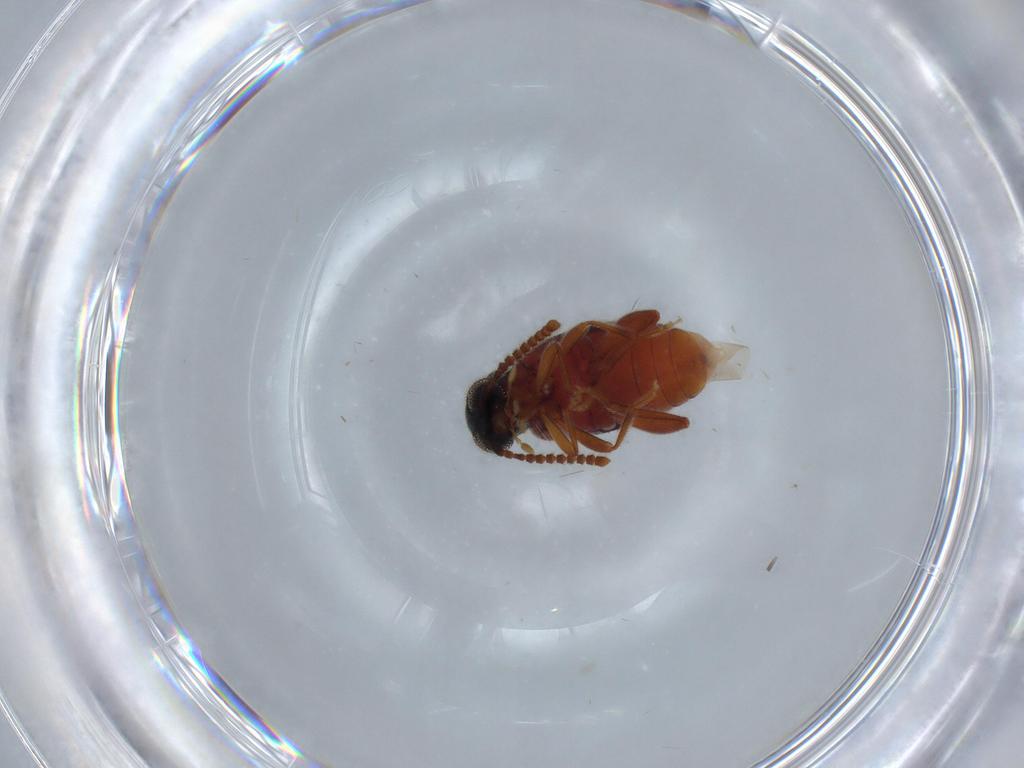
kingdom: Animalia
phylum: Arthropoda
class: Insecta
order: Coleoptera
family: Aderidae
